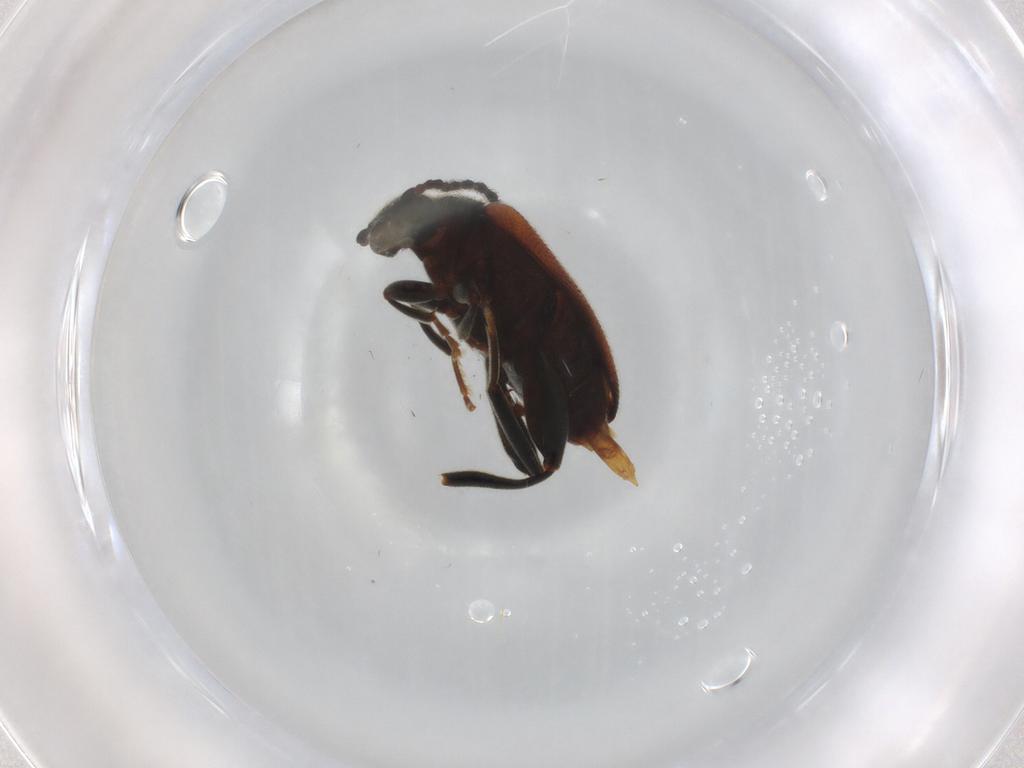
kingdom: Animalia
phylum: Arthropoda
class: Insecta
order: Coleoptera
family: Aderidae
